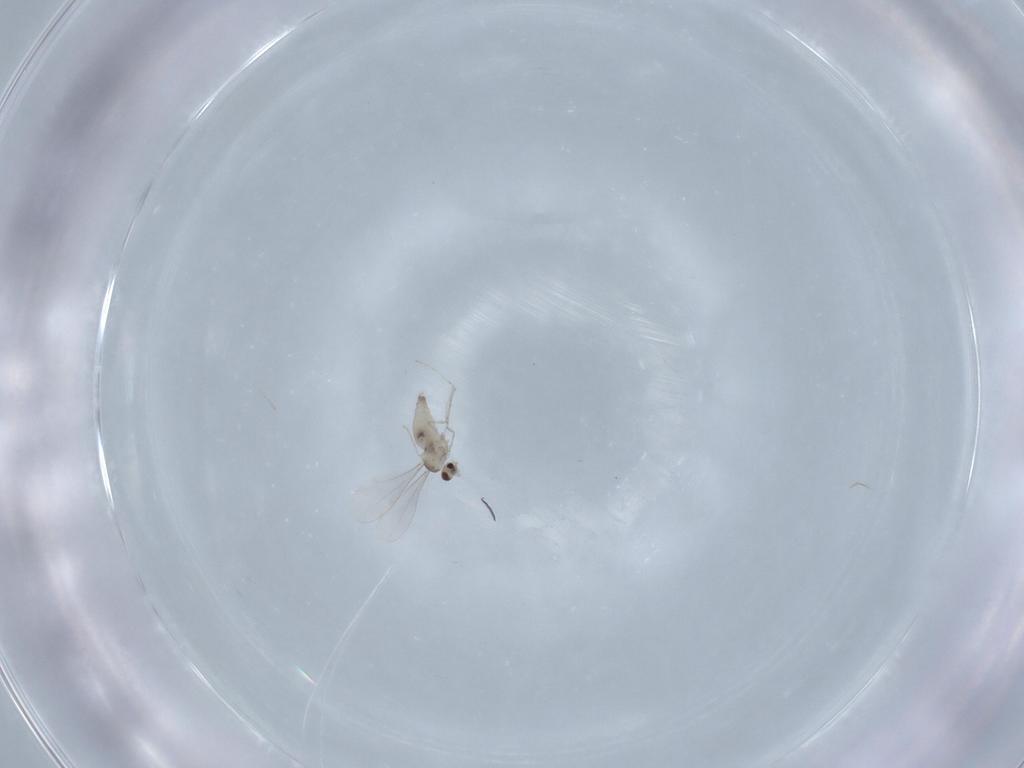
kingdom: Animalia
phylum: Arthropoda
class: Insecta
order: Diptera
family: Cecidomyiidae
